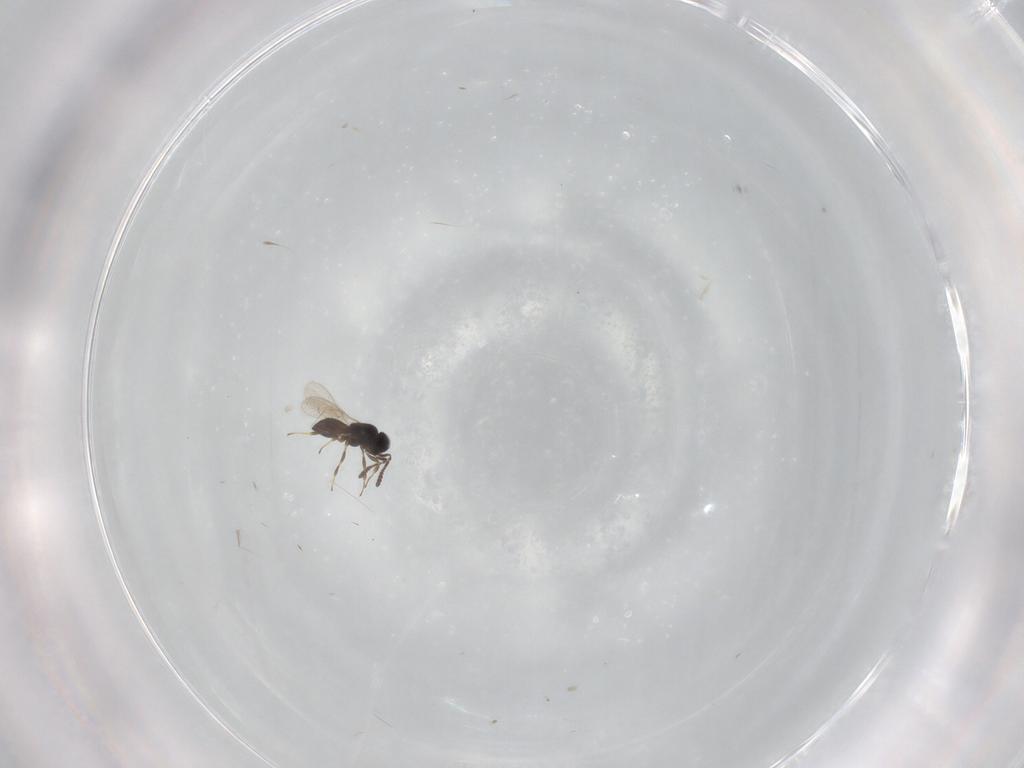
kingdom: Animalia
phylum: Arthropoda
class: Insecta
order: Hymenoptera
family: Scelionidae
